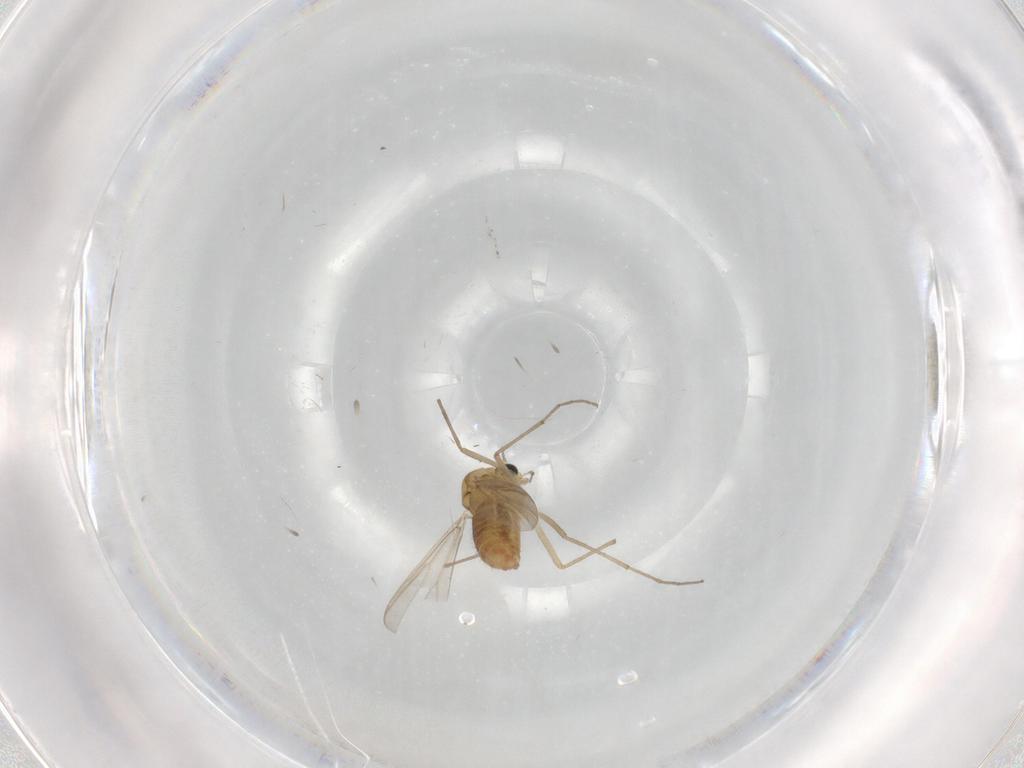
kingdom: Animalia
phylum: Arthropoda
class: Insecta
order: Diptera
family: Chironomidae
